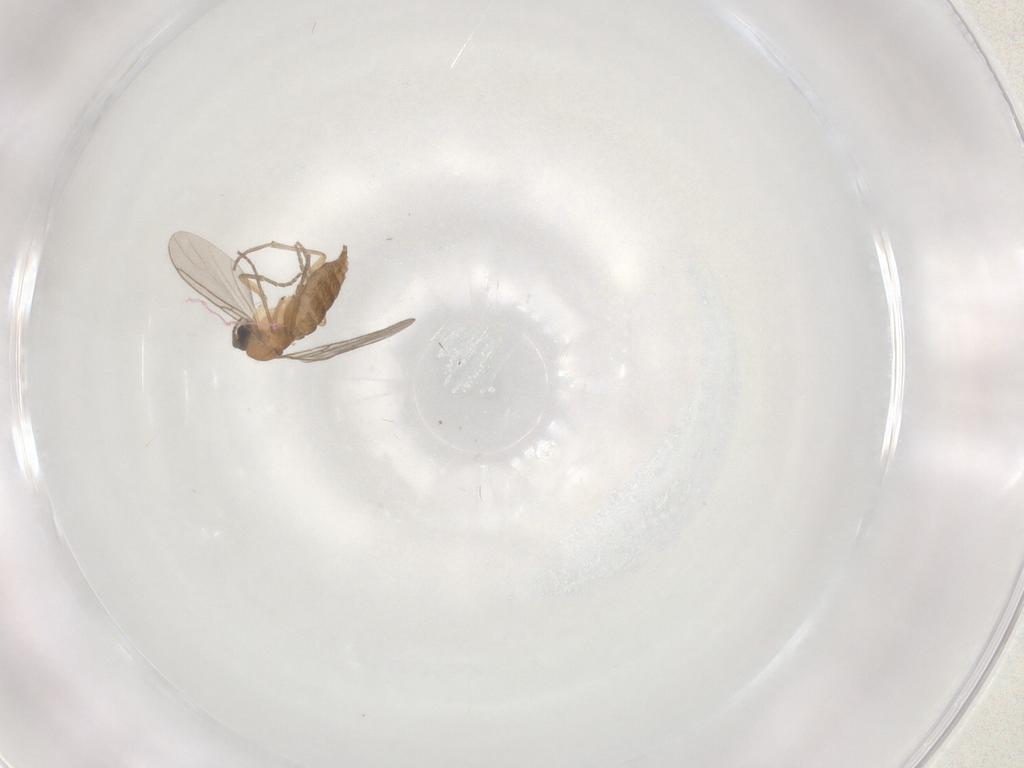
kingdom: Animalia
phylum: Arthropoda
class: Insecta
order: Diptera
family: Sciaridae
